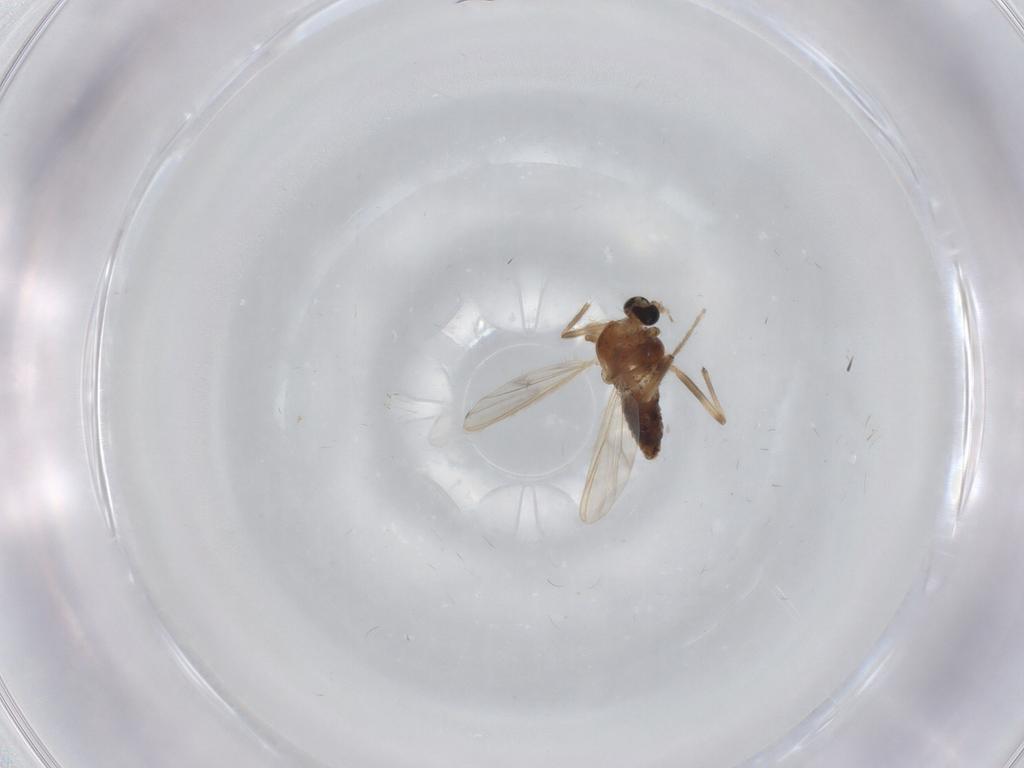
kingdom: Animalia
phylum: Arthropoda
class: Insecta
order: Diptera
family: Chironomidae
